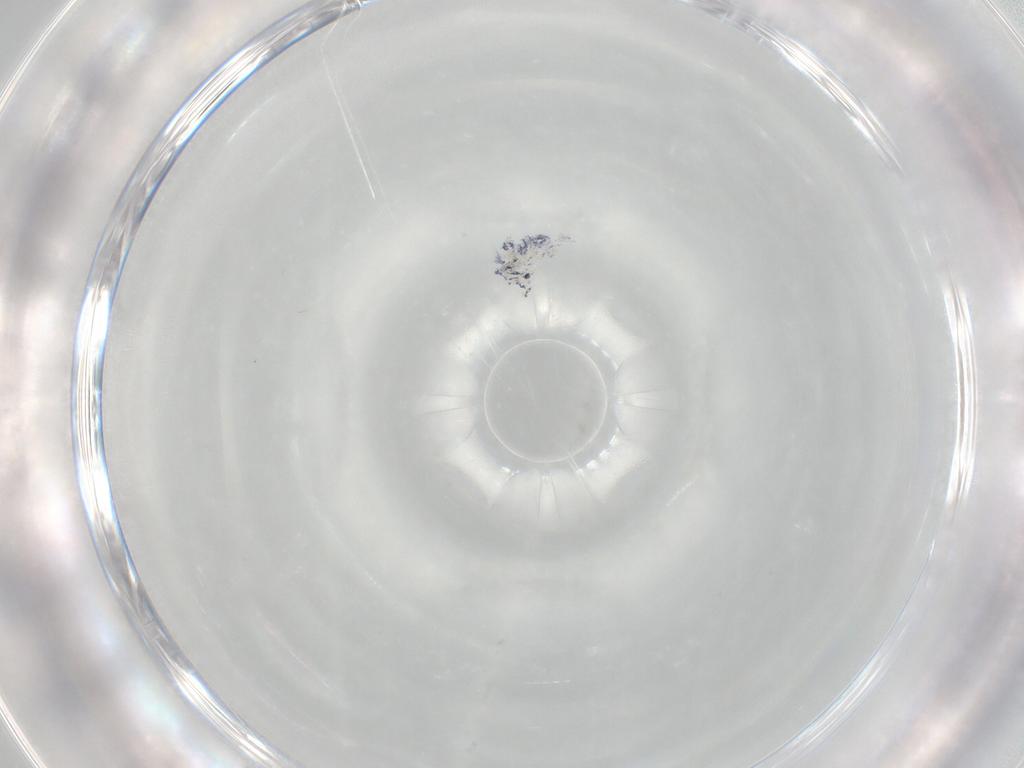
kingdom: Animalia
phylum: Arthropoda
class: Collembola
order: Entomobryomorpha
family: Entomobryidae
